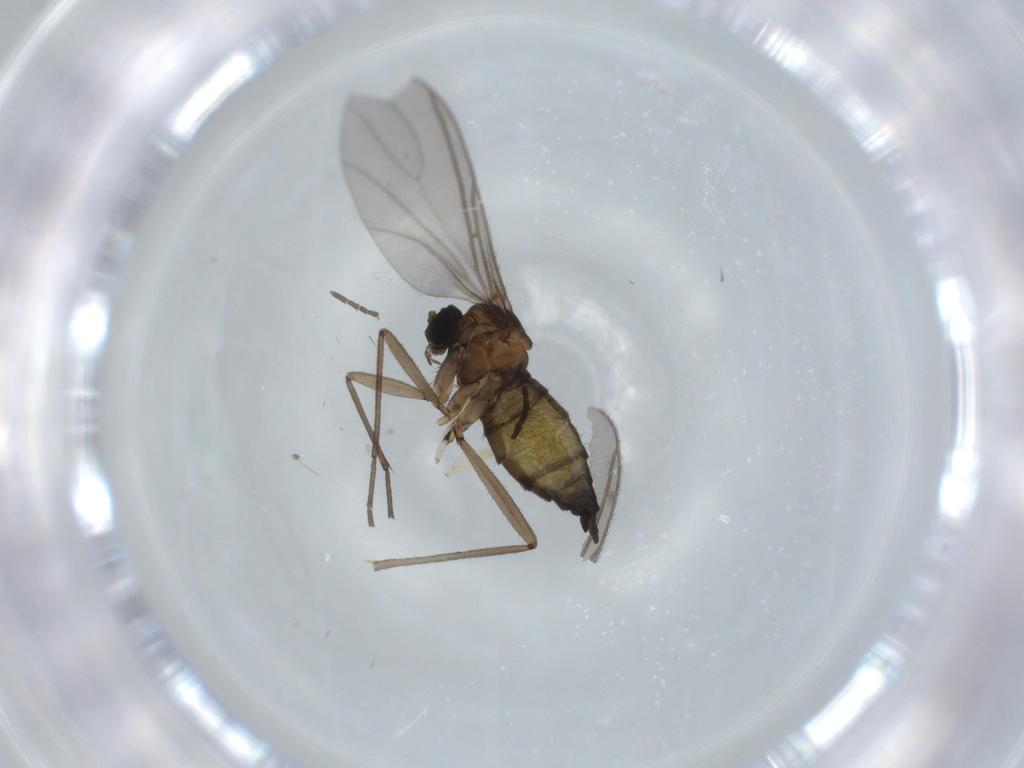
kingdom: Animalia
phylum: Arthropoda
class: Insecta
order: Diptera
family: Sciaridae
